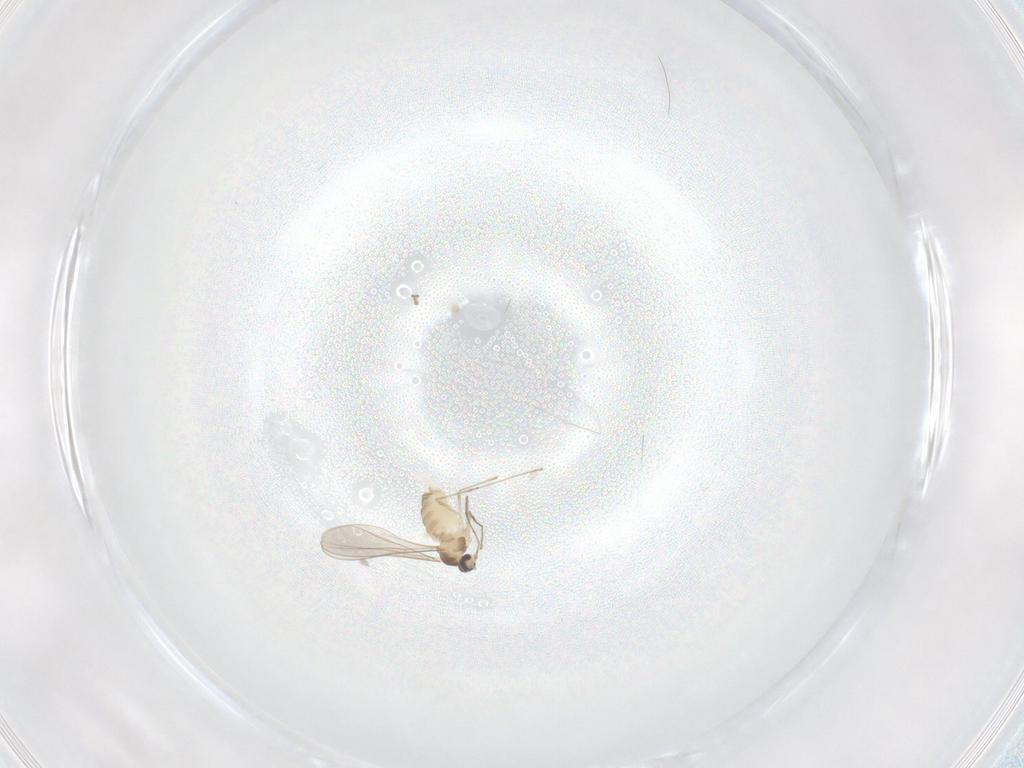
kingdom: Animalia
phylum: Arthropoda
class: Insecta
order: Diptera
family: Cecidomyiidae
